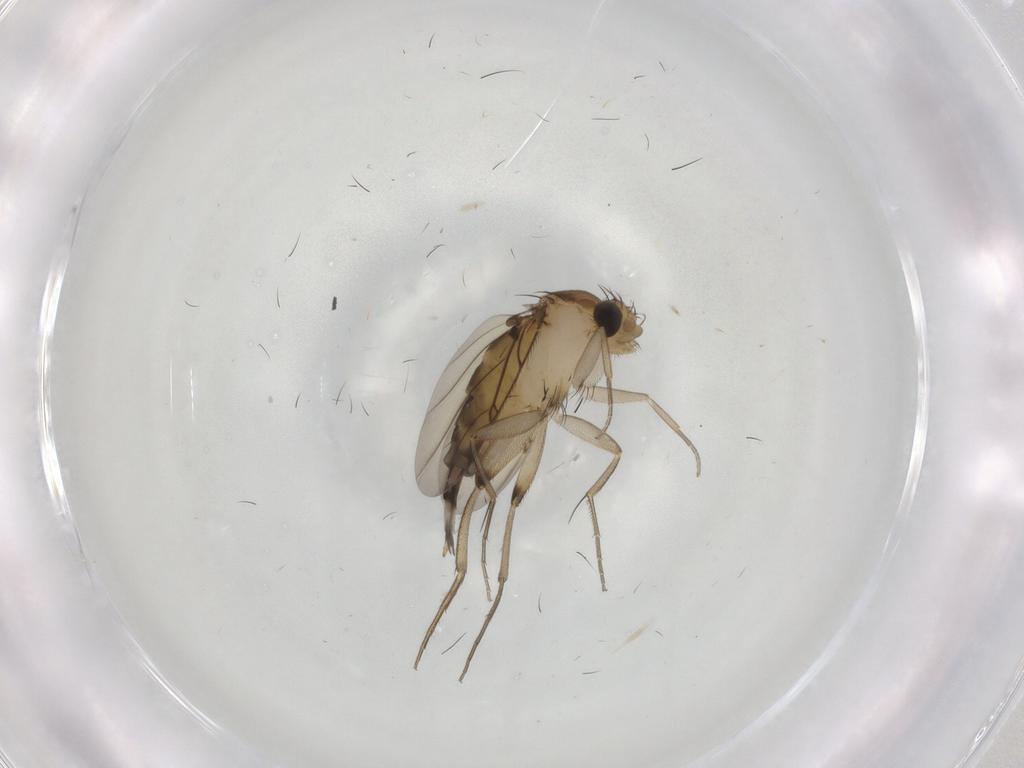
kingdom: Animalia
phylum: Arthropoda
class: Insecta
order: Diptera
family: Phoridae
